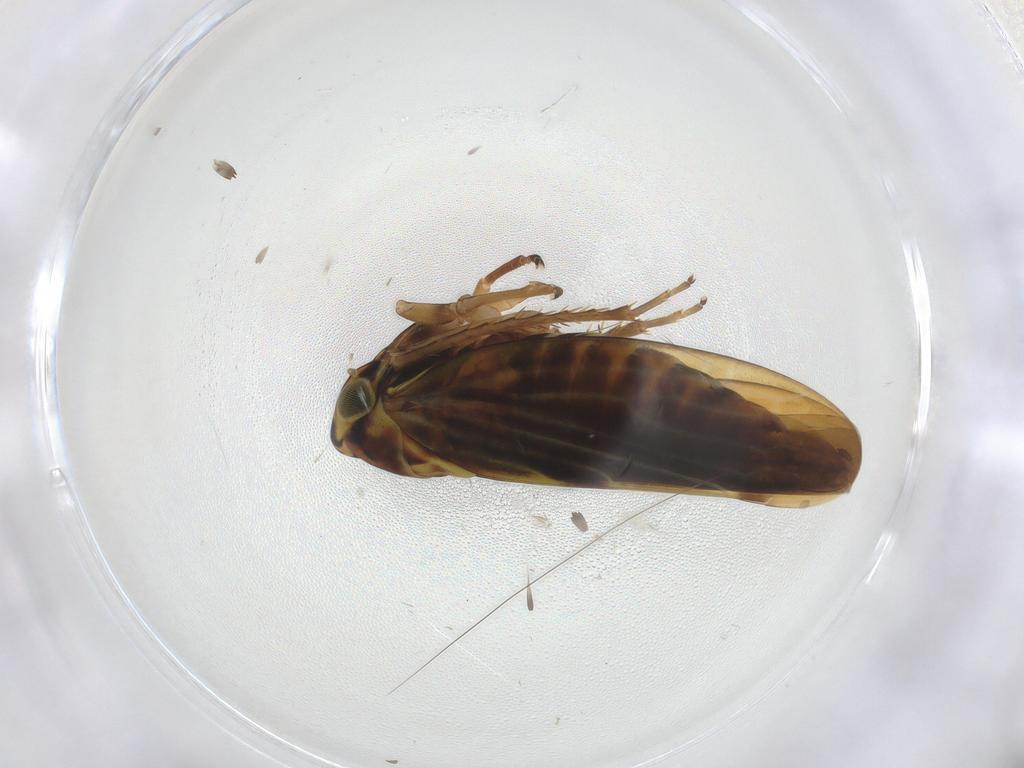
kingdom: Animalia
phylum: Arthropoda
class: Insecta
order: Hemiptera
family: Cicadellidae
